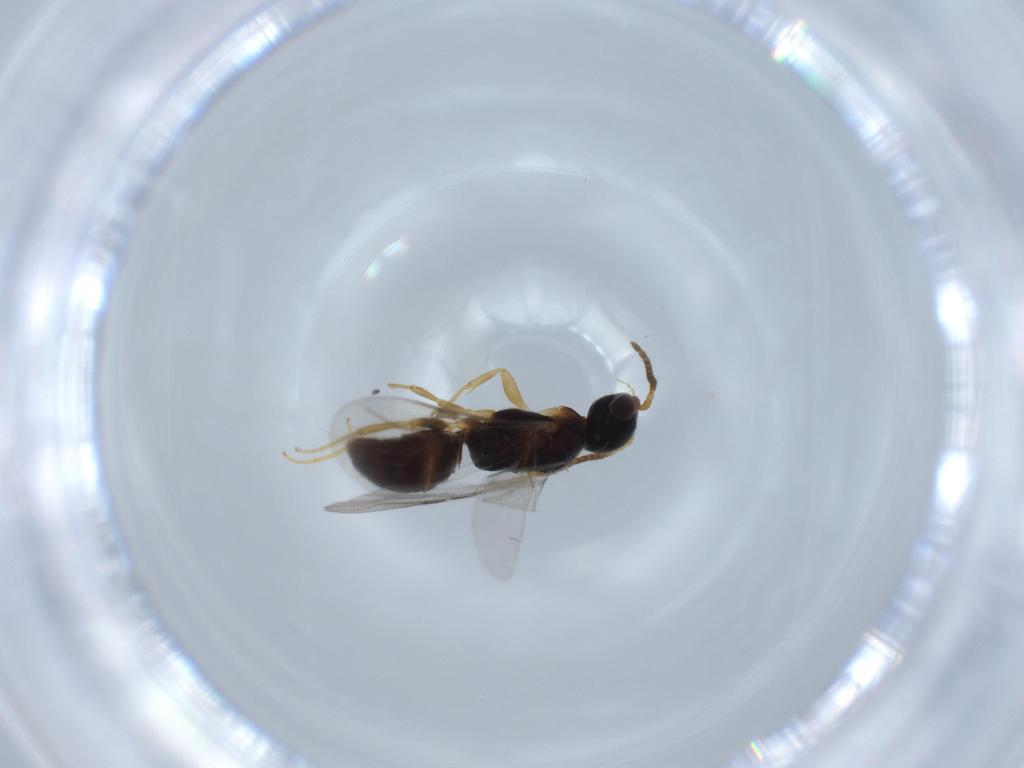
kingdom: Animalia
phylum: Arthropoda
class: Insecta
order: Hymenoptera
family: Bethylidae
